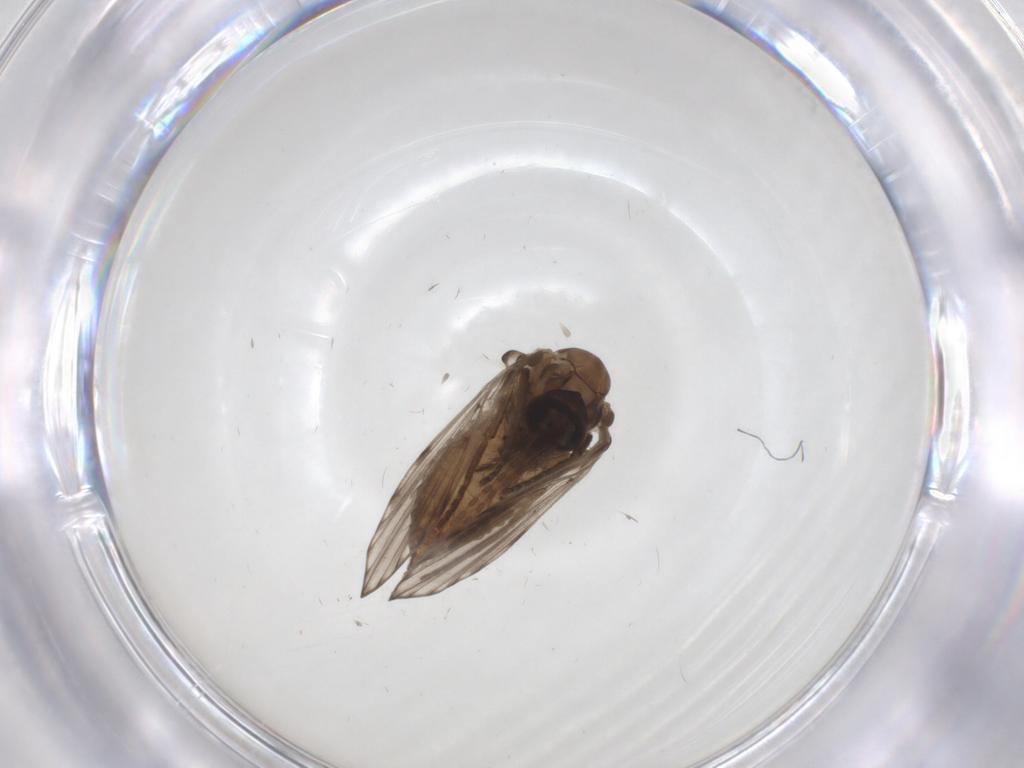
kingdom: Animalia
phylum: Arthropoda
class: Insecta
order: Diptera
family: Psychodidae
